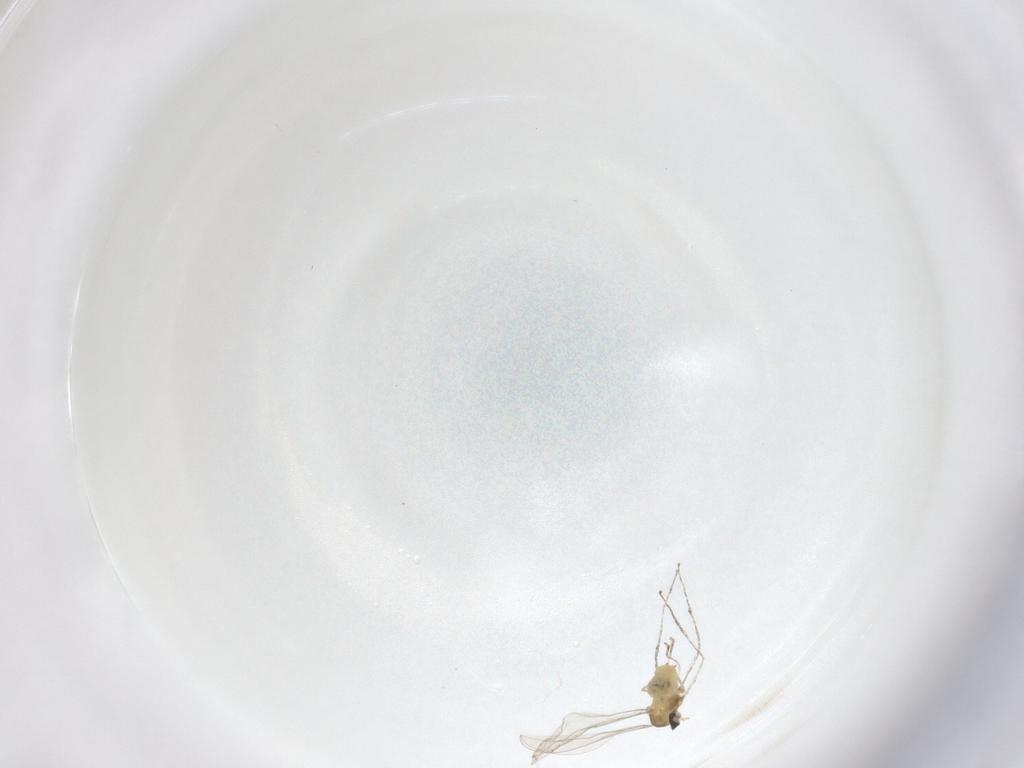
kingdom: Animalia
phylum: Arthropoda
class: Insecta
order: Diptera
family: Cecidomyiidae
